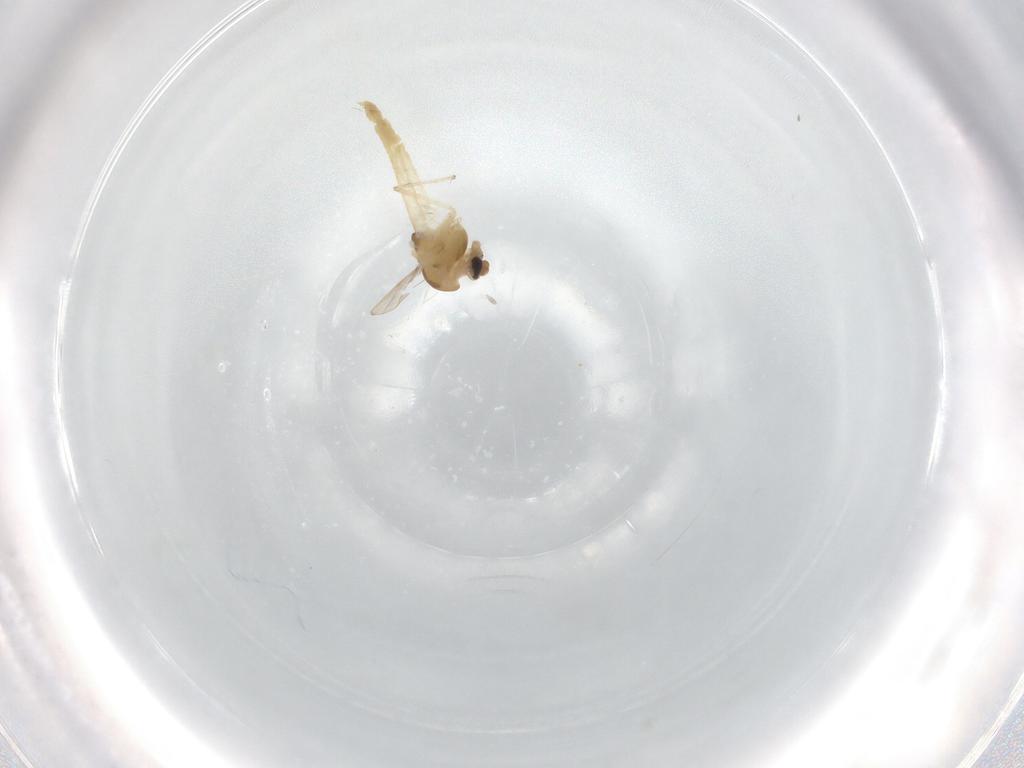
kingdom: Animalia
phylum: Arthropoda
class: Insecta
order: Diptera
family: Chironomidae
